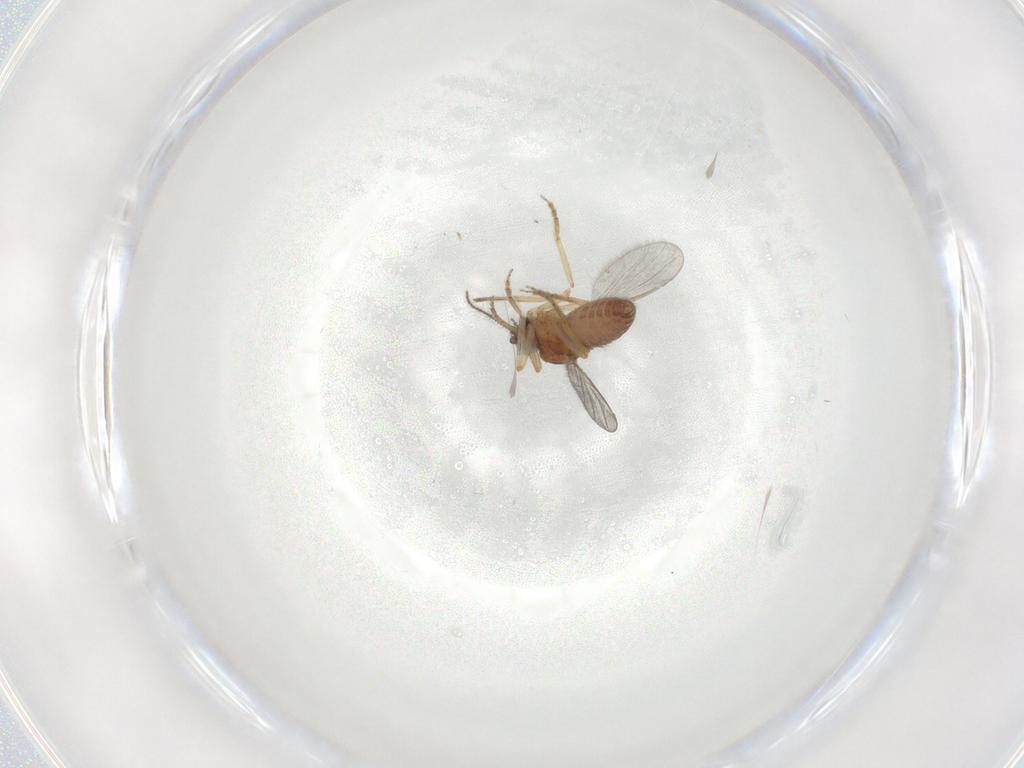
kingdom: Animalia
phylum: Arthropoda
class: Insecta
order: Diptera
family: Ceratopogonidae
